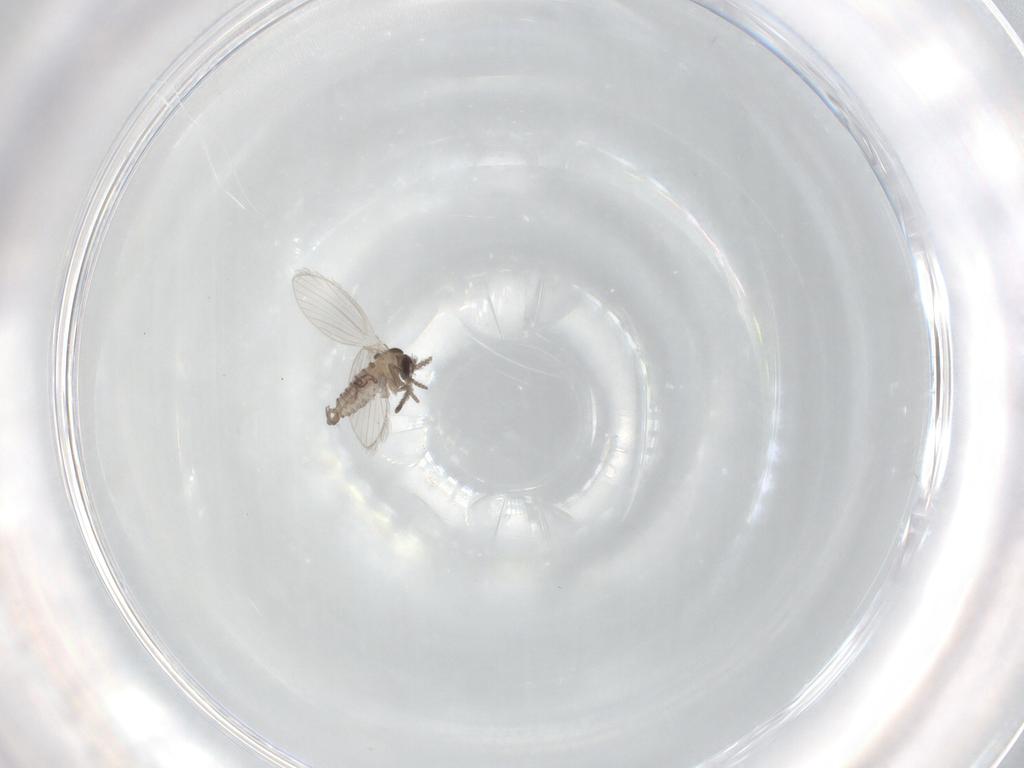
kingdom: Animalia
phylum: Arthropoda
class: Insecta
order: Diptera
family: Psychodidae
